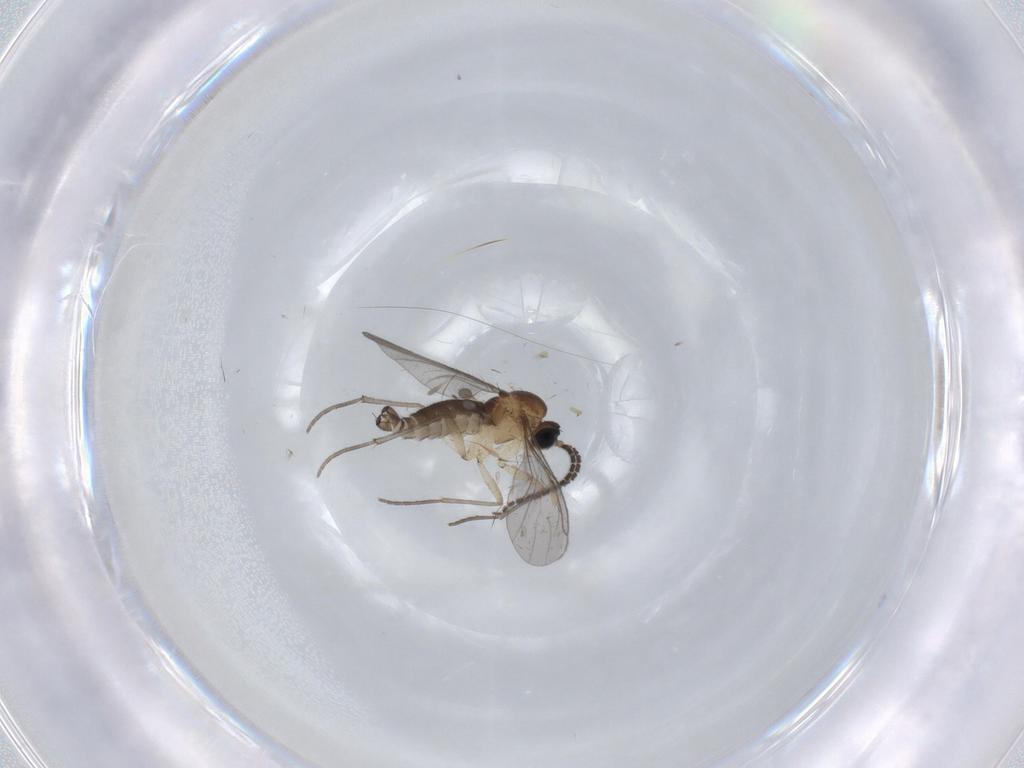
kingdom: Animalia
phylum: Arthropoda
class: Insecta
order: Diptera
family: Sciaridae
